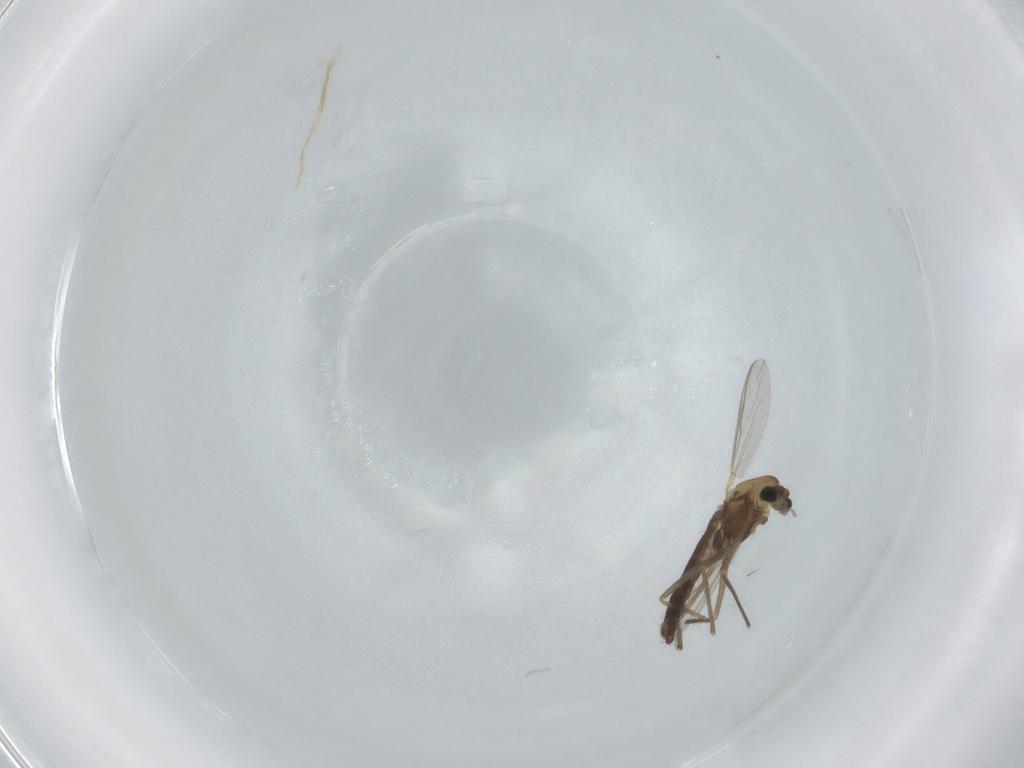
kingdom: Animalia
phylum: Arthropoda
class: Insecta
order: Diptera
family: Chironomidae
